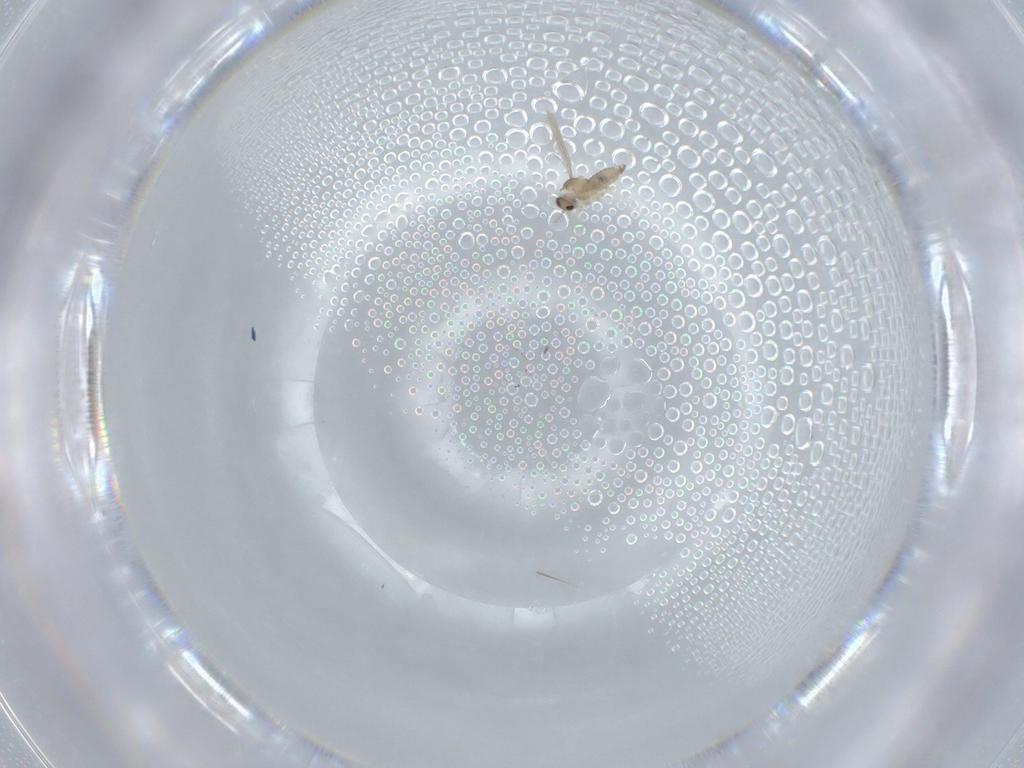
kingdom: Animalia
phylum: Arthropoda
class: Insecta
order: Diptera
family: Cecidomyiidae
